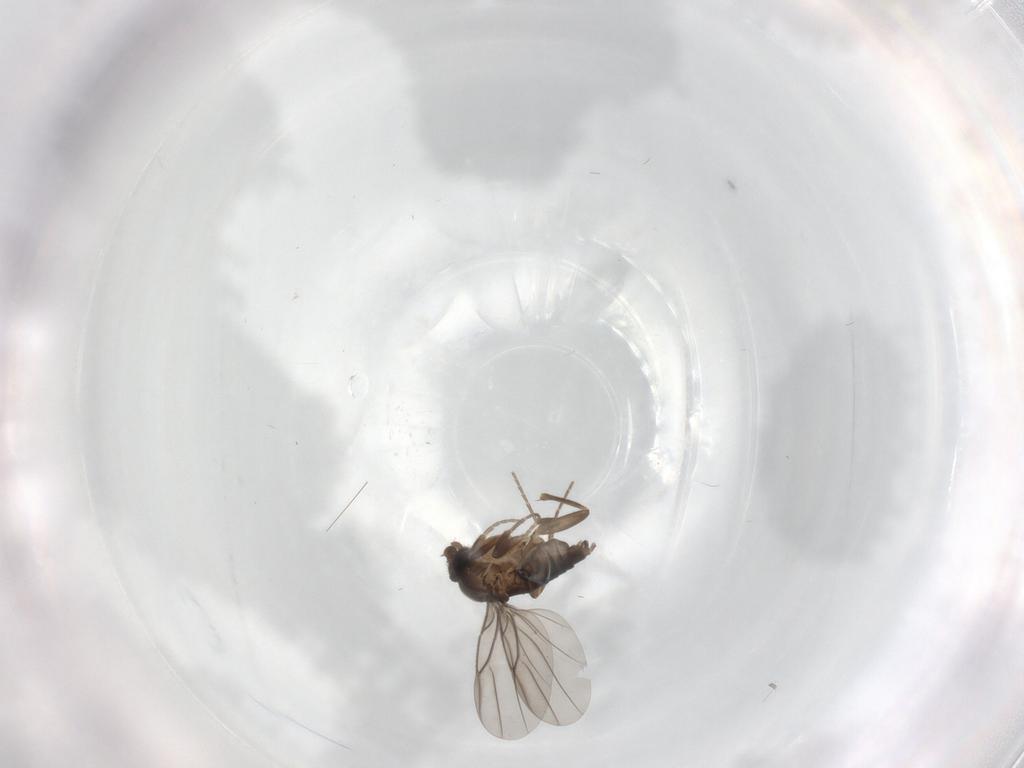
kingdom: Animalia
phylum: Arthropoda
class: Insecta
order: Diptera
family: Phoridae
